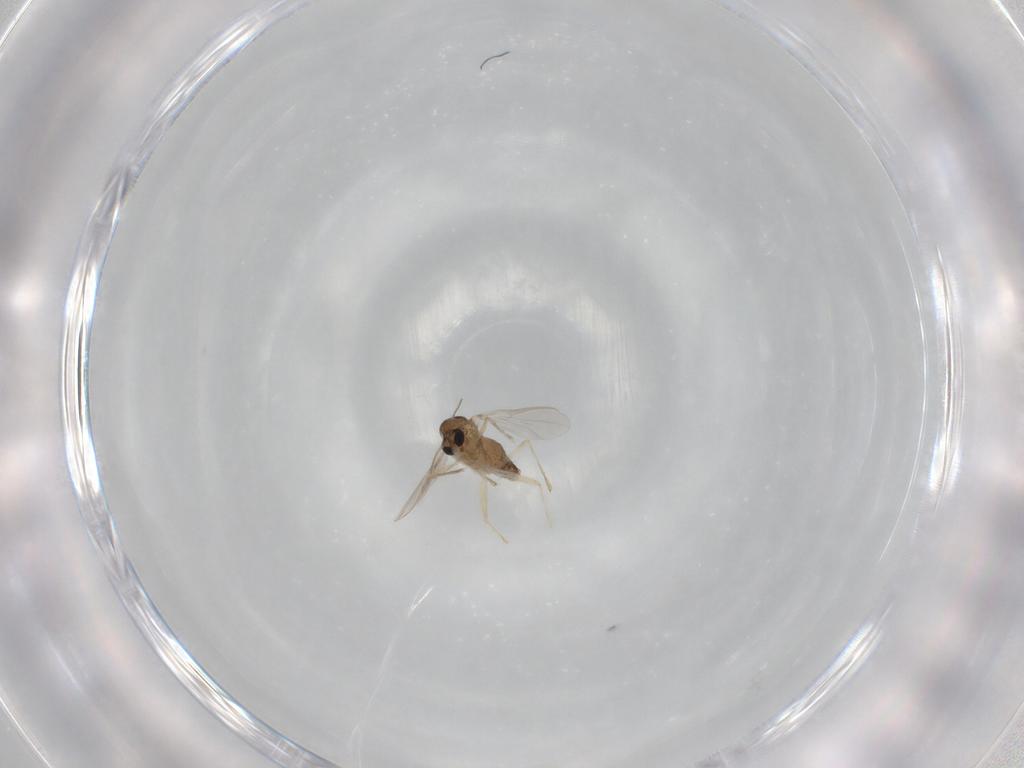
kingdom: Animalia
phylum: Arthropoda
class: Insecta
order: Diptera
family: Chironomidae
